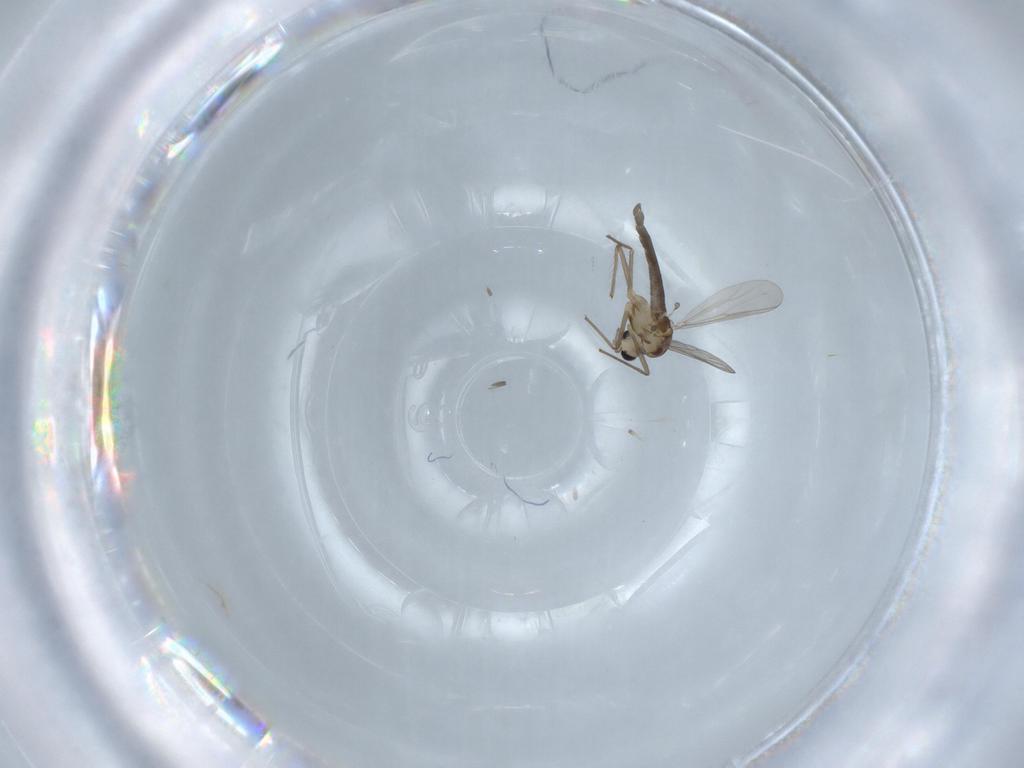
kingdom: Animalia
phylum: Arthropoda
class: Insecta
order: Diptera
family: Chironomidae
